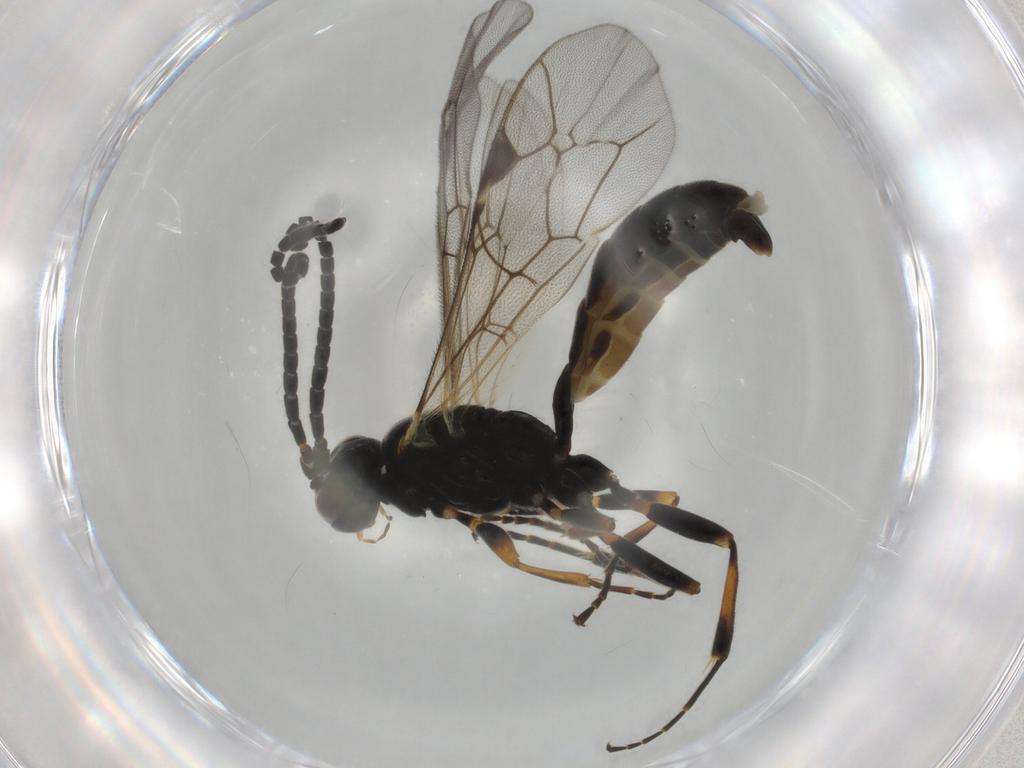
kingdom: Animalia
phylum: Arthropoda
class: Insecta
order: Hymenoptera
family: Ichneumonidae
